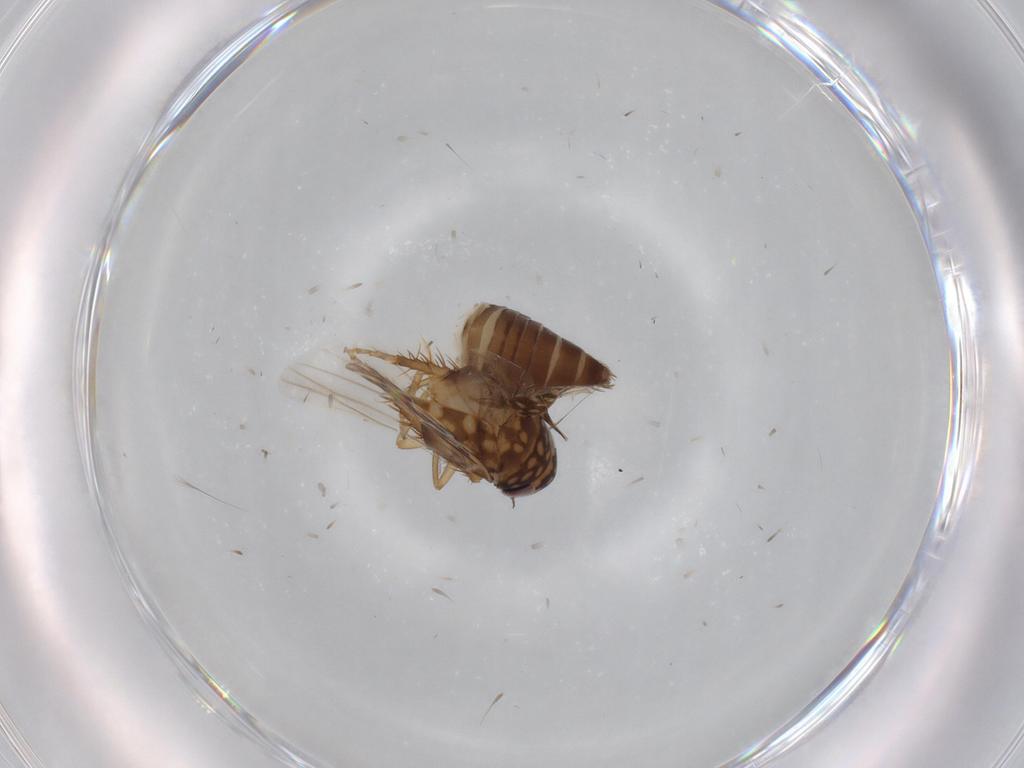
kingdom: Animalia
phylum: Arthropoda
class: Insecta
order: Hemiptera
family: Cicadellidae
